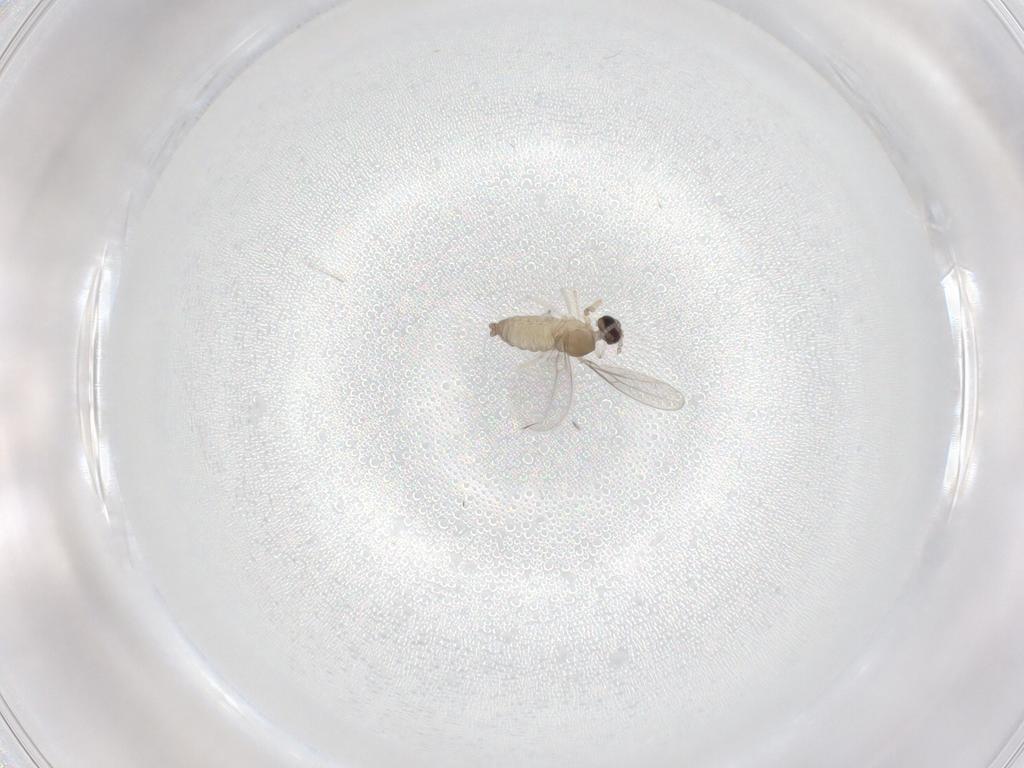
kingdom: Animalia
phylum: Arthropoda
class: Insecta
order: Diptera
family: Cecidomyiidae
